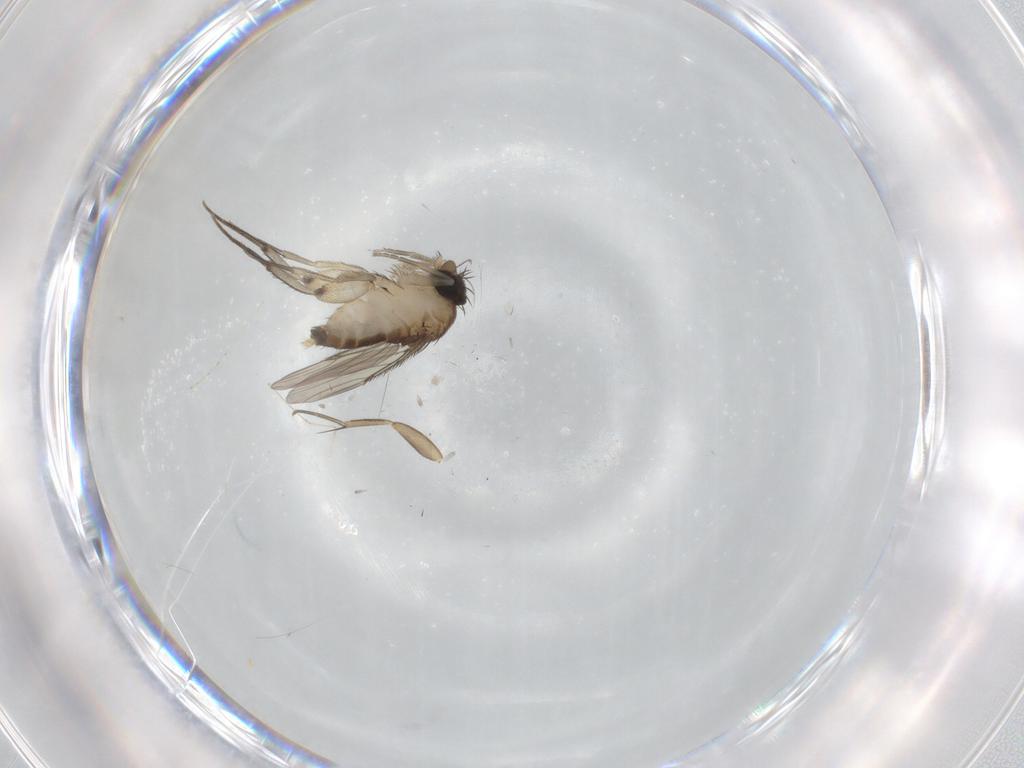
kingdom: Animalia
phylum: Arthropoda
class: Insecta
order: Diptera
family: Phoridae
